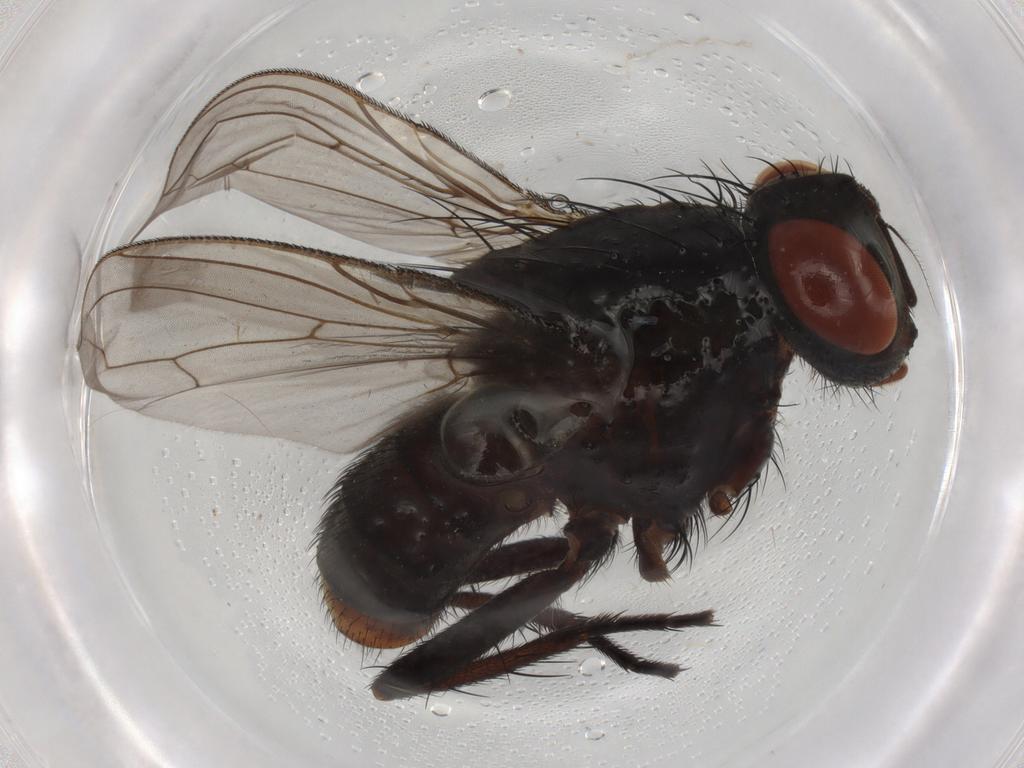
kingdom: Animalia
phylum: Arthropoda
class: Insecta
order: Diptera
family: Sarcophagidae
